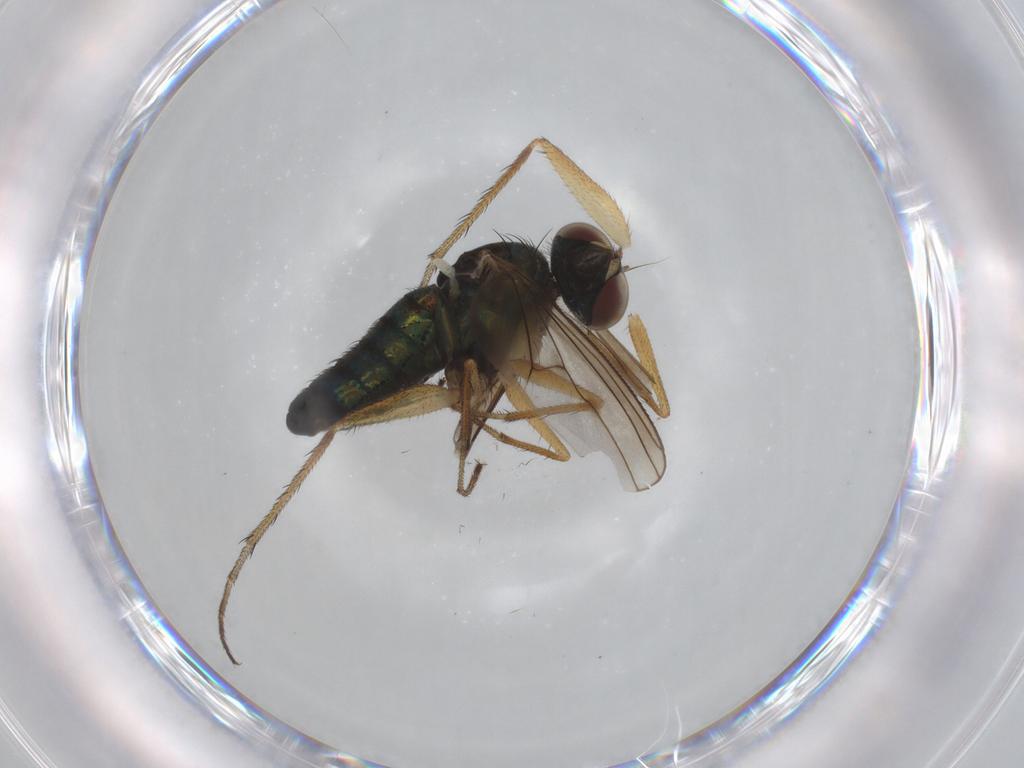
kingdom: Animalia
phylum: Arthropoda
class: Insecta
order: Diptera
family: Dolichopodidae
